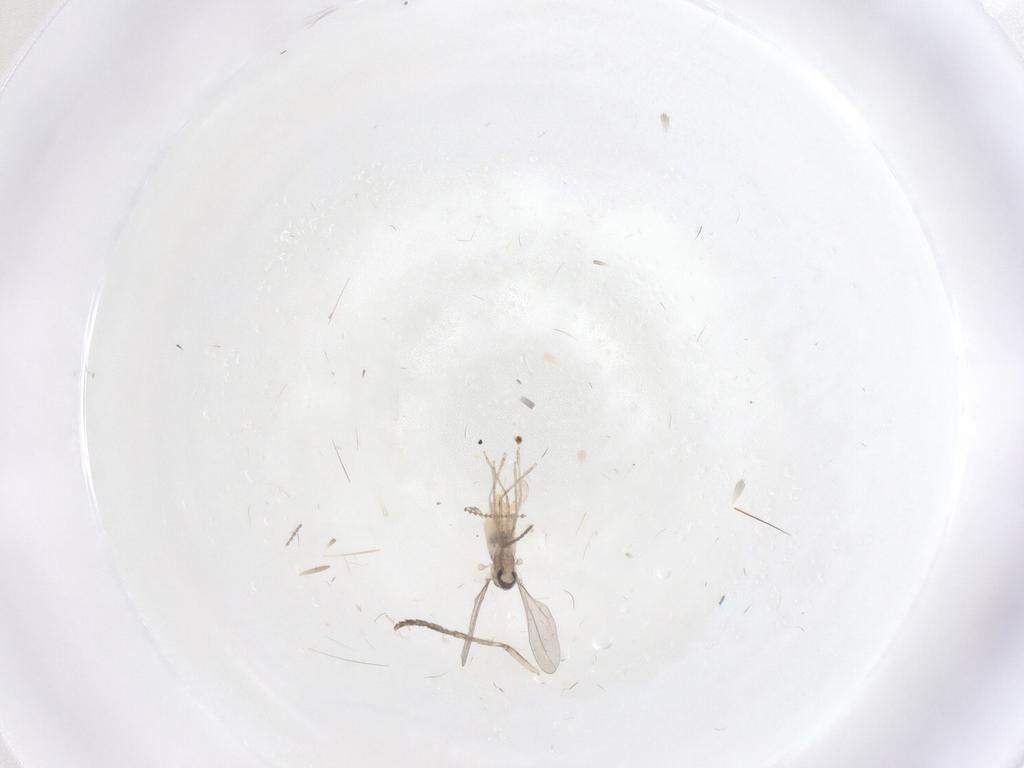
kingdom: Animalia
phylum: Arthropoda
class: Insecta
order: Diptera
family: Cecidomyiidae
